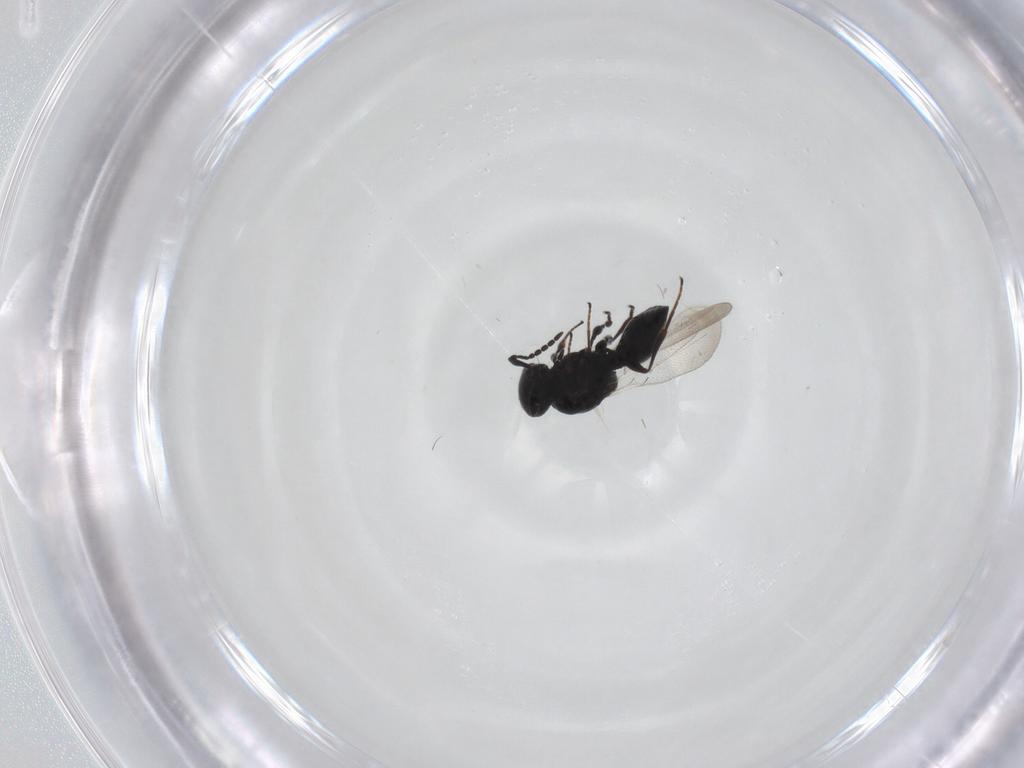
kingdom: Animalia
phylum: Arthropoda
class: Insecta
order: Hymenoptera
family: Platygastridae
